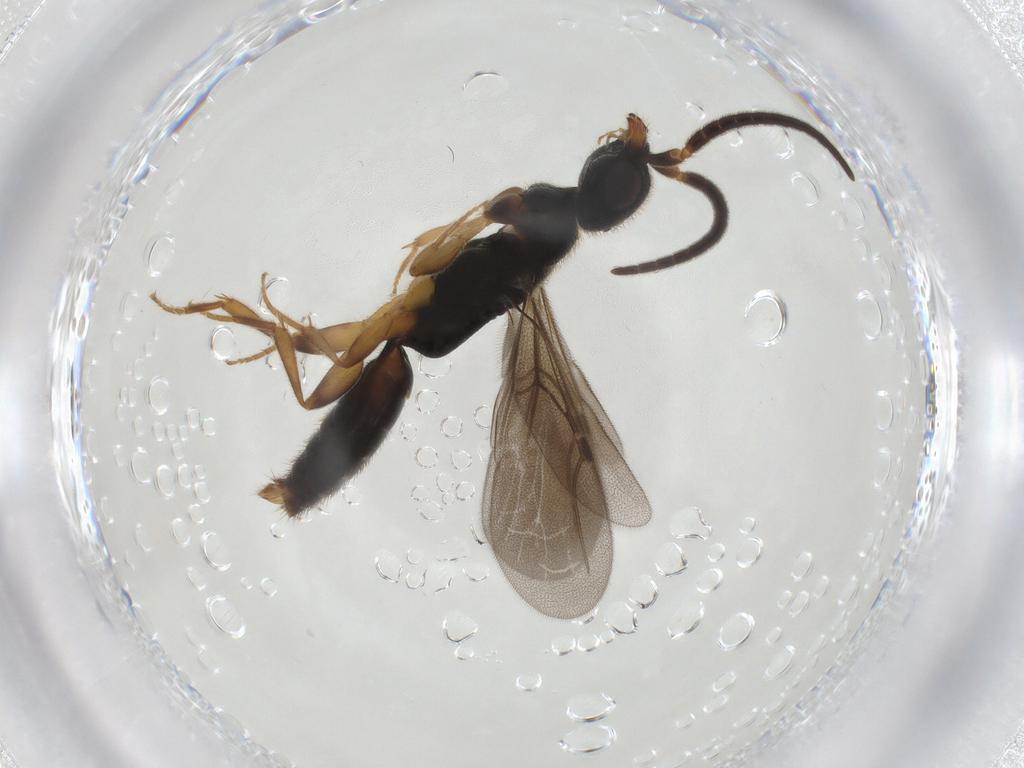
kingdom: Animalia
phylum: Arthropoda
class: Insecta
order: Hymenoptera
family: Bethylidae
